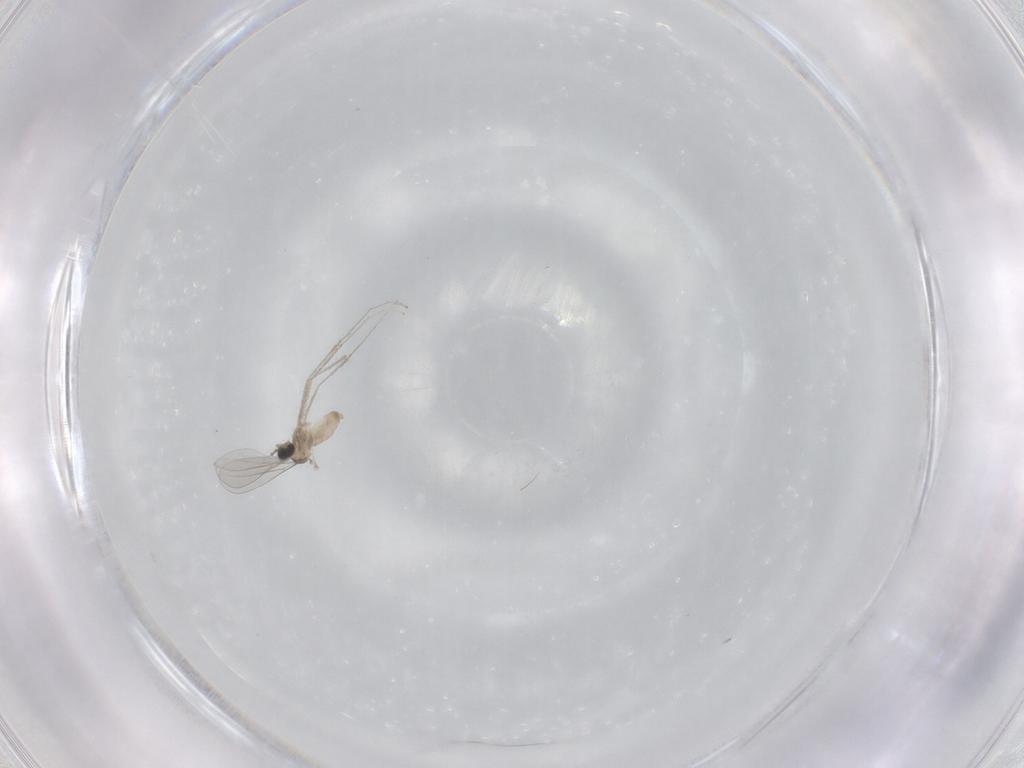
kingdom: Animalia
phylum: Arthropoda
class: Insecta
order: Diptera
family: Cecidomyiidae
